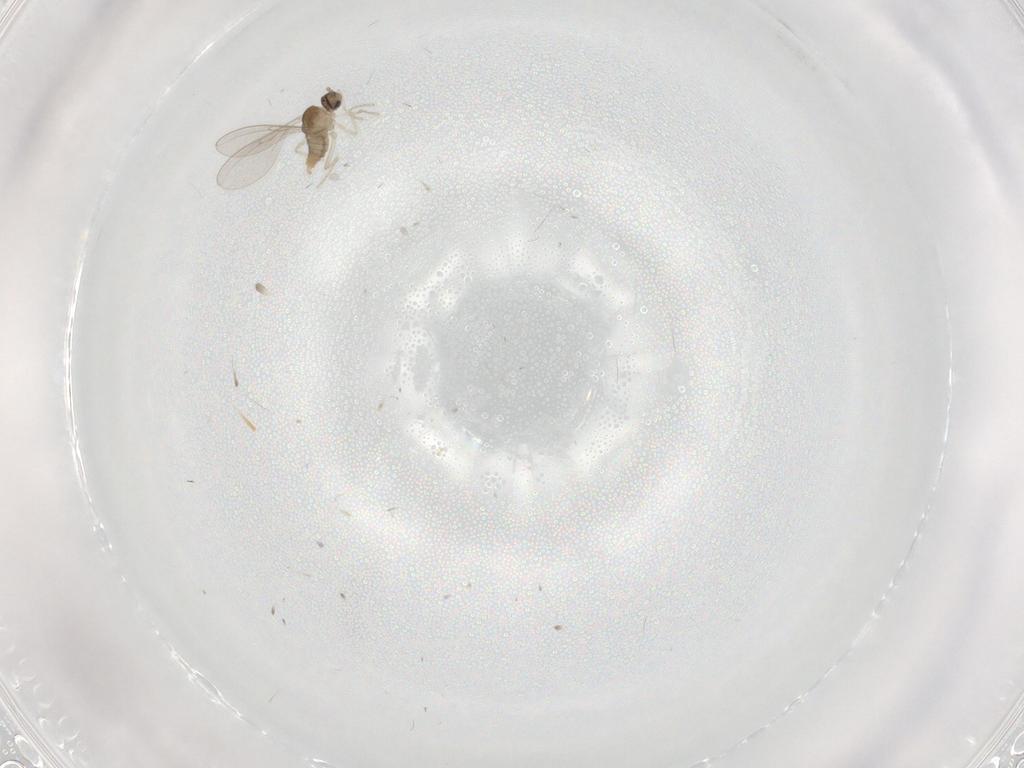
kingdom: Animalia
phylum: Arthropoda
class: Insecta
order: Diptera
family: Cecidomyiidae
